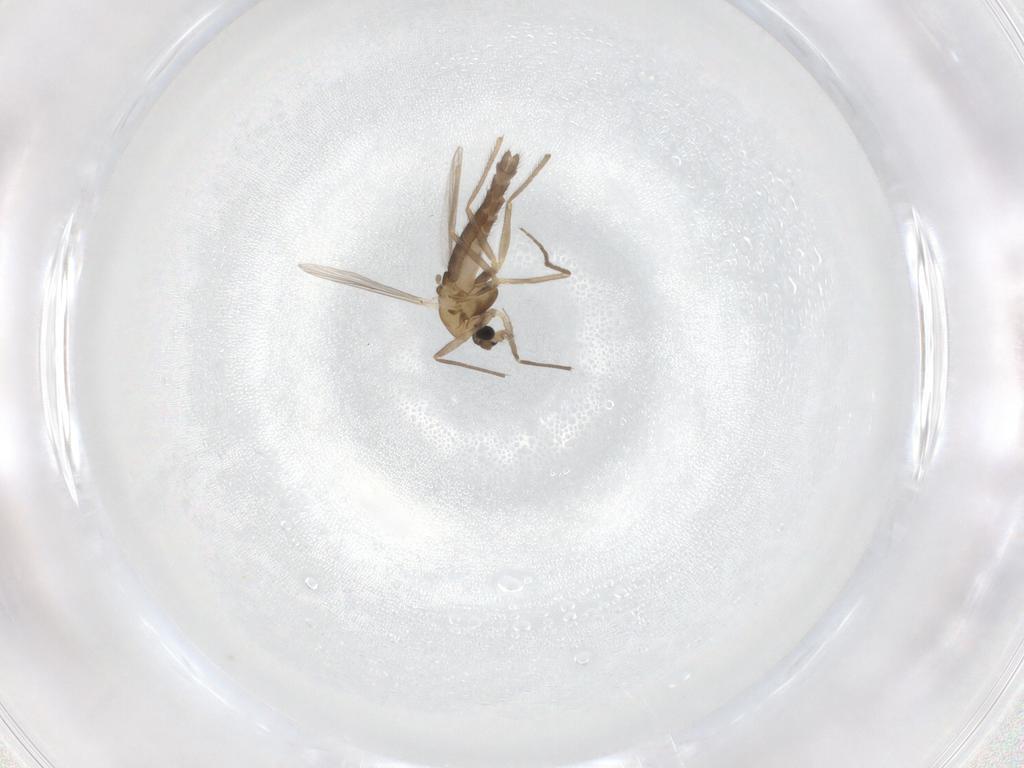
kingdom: Animalia
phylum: Arthropoda
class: Insecta
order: Diptera
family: Chironomidae
